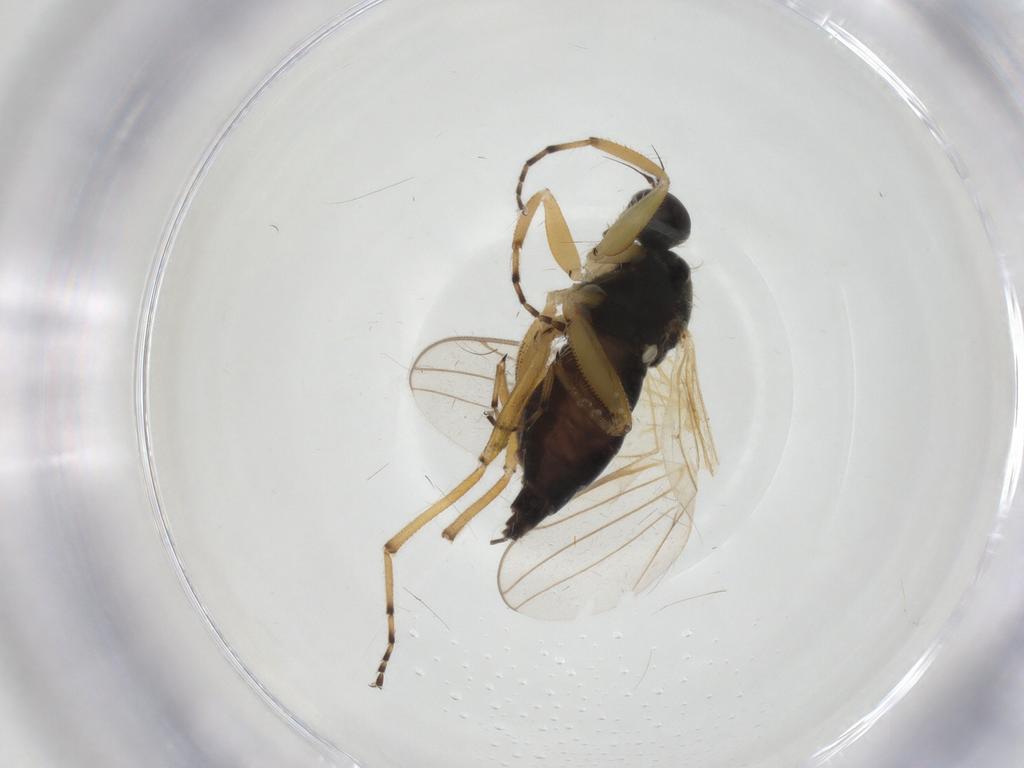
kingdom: Animalia
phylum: Arthropoda
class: Insecta
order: Diptera
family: Hybotidae
